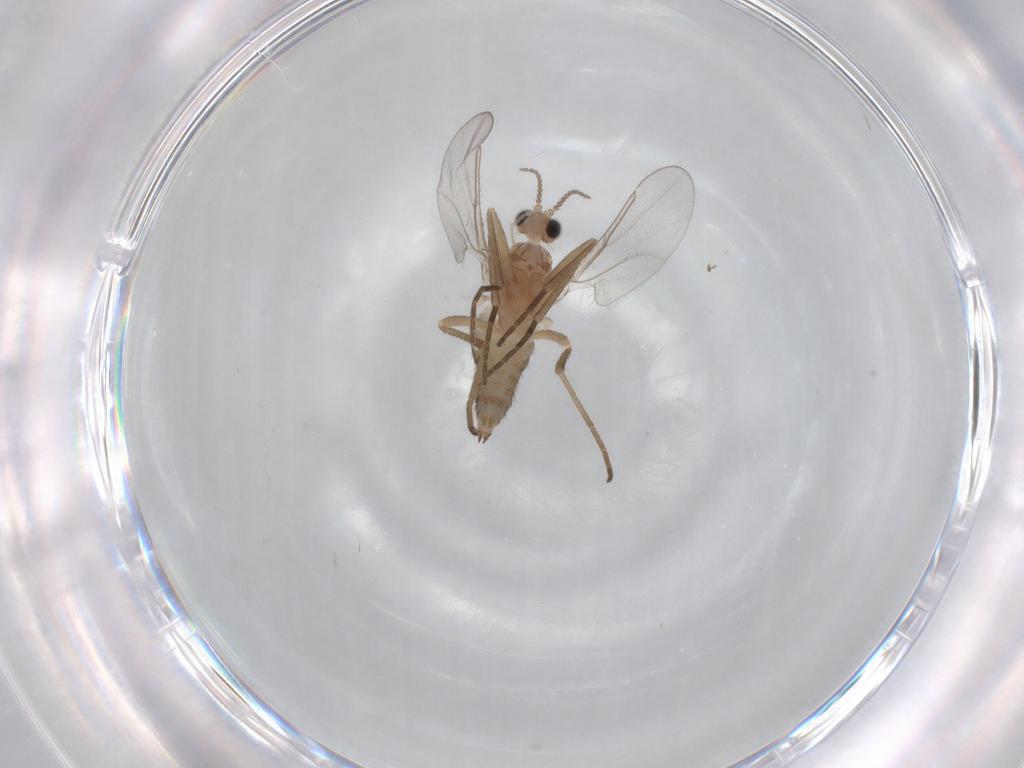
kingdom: Animalia
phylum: Arthropoda
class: Insecta
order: Diptera
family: Cecidomyiidae
